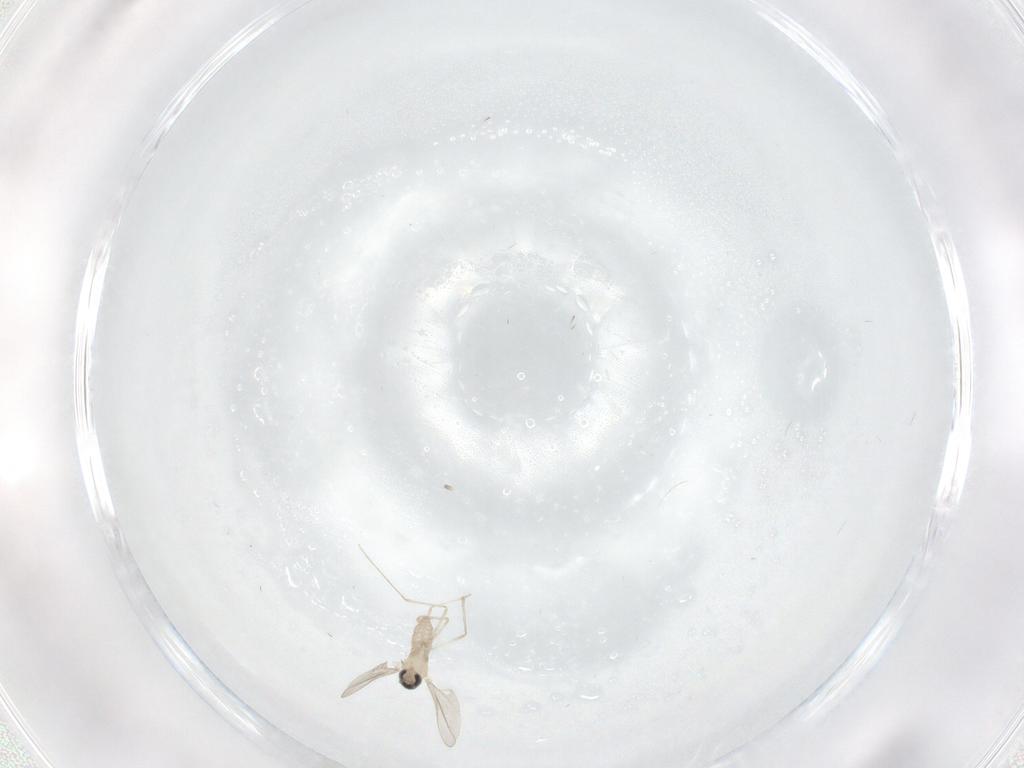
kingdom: Animalia
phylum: Arthropoda
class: Insecta
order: Diptera
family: Cecidomyiidae
